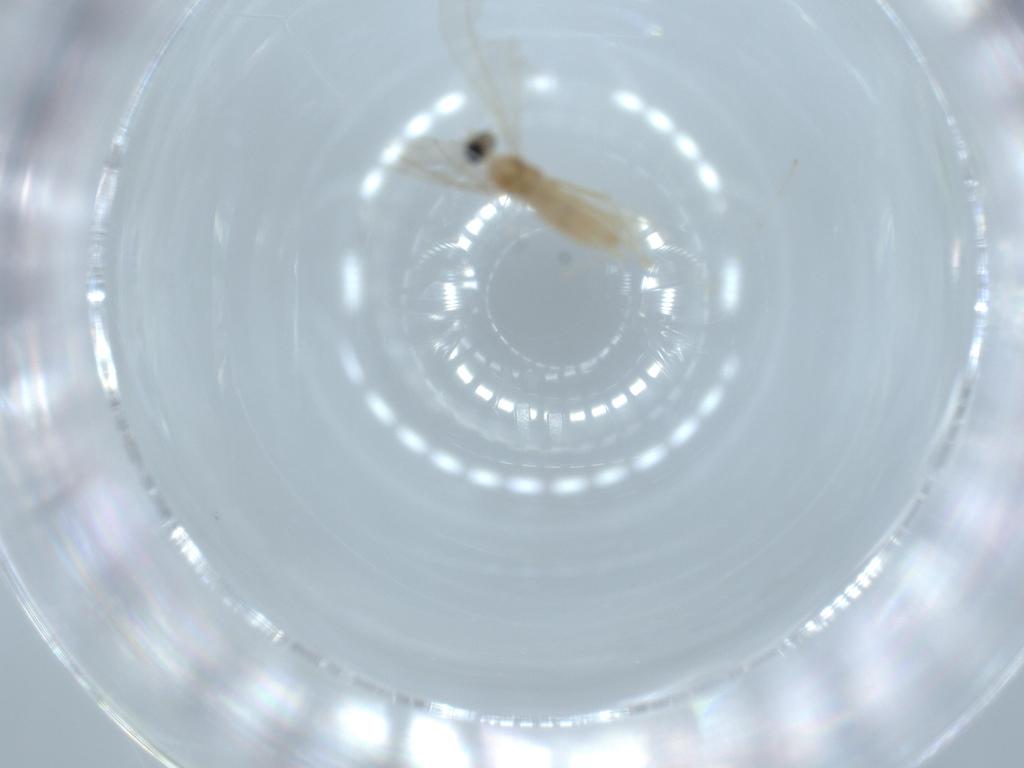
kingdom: Animalia
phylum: Arthropoda
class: Insecta
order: Diptera
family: Cecidomyiidae
